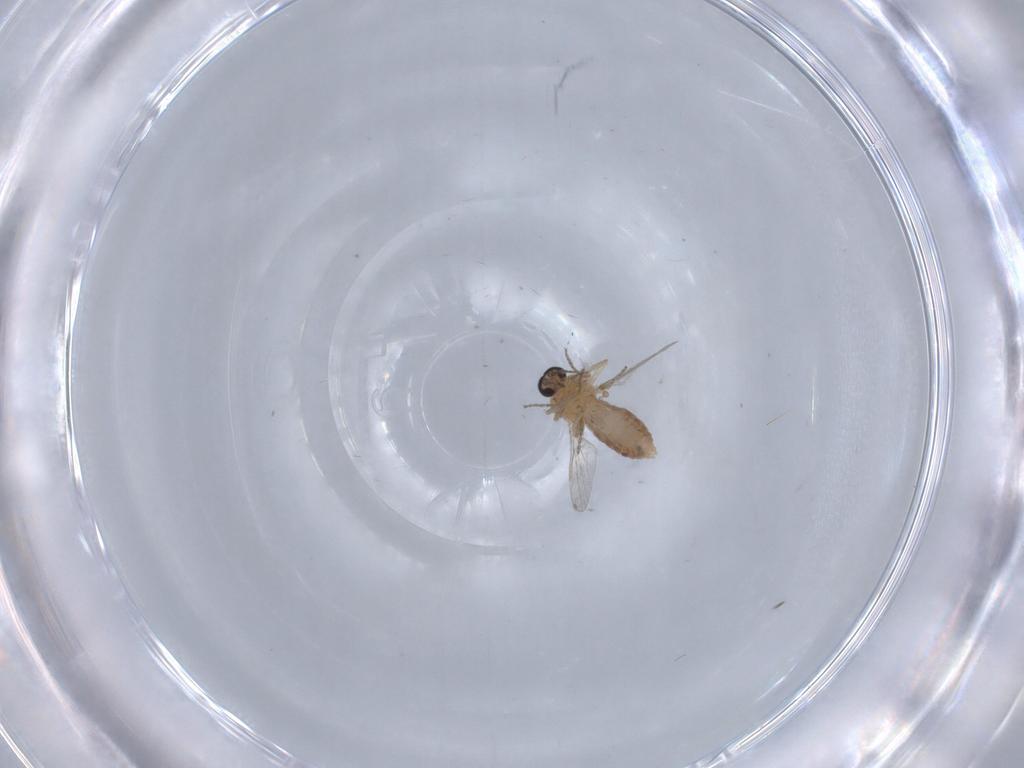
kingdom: Animalia
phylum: Arthropoda
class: Insecta
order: Diptera
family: Ceratopogonidae
